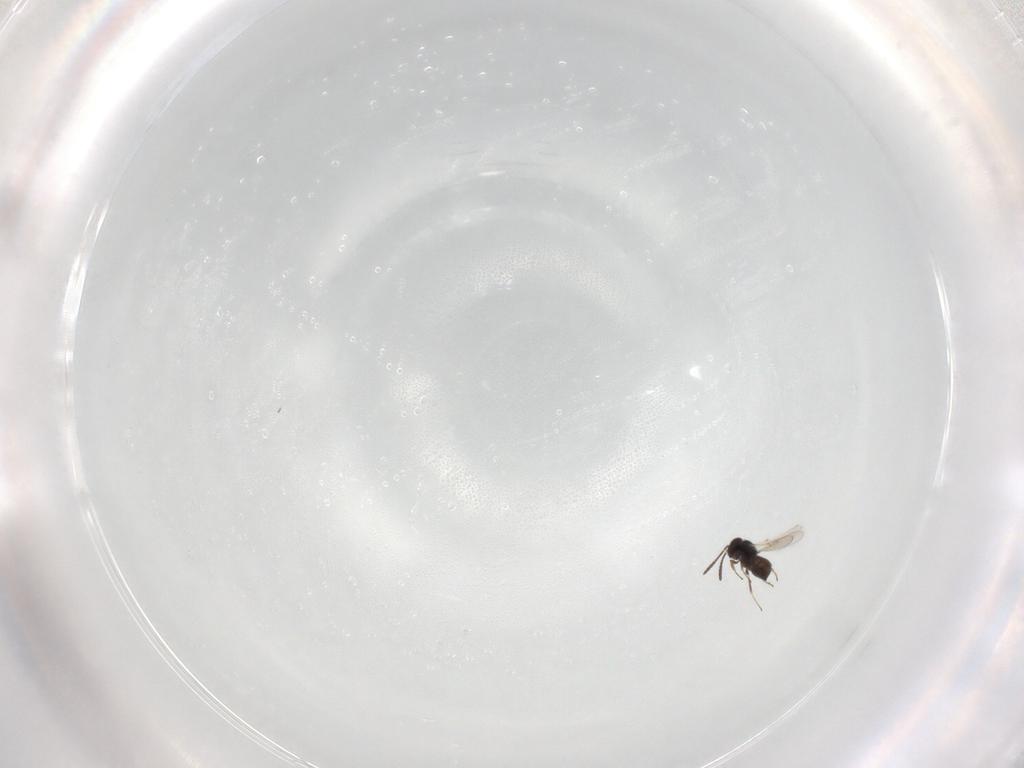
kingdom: Animalia
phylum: Arthropoda
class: Insecta
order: Hymenoptera
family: Scelionidae
